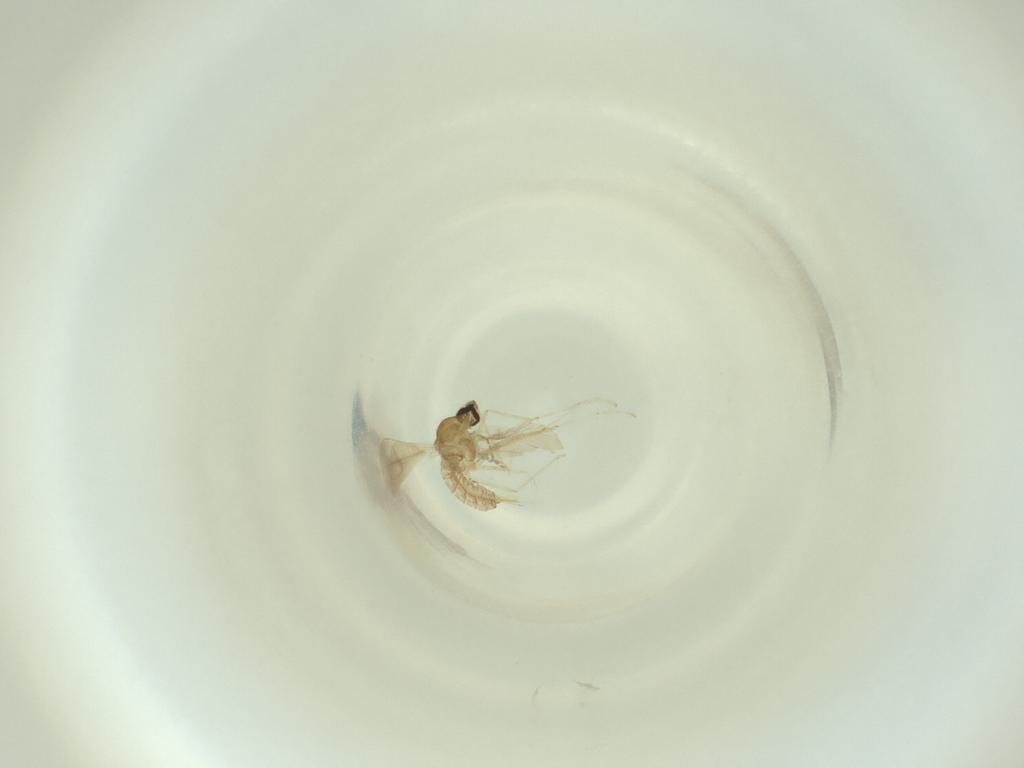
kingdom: Animalia
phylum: Arthropoda
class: Insecta
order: Diptera
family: Cecidomyiidae
